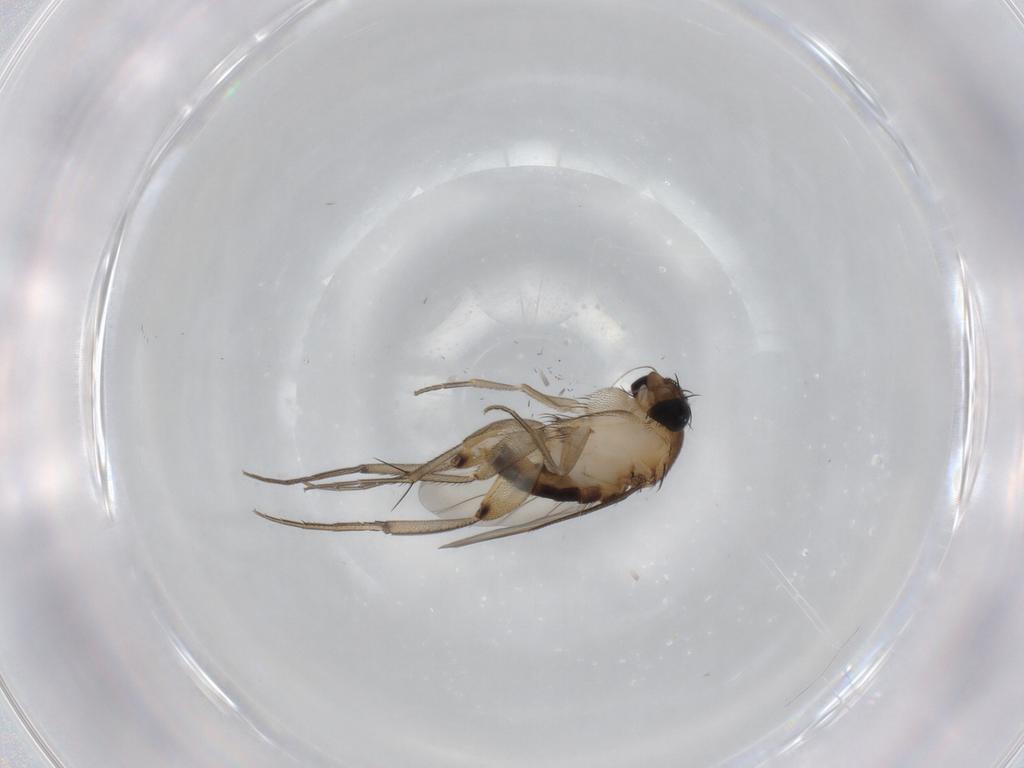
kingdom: Animalia
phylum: Arthropoda
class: Insecta
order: Diptera
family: Phoridae
